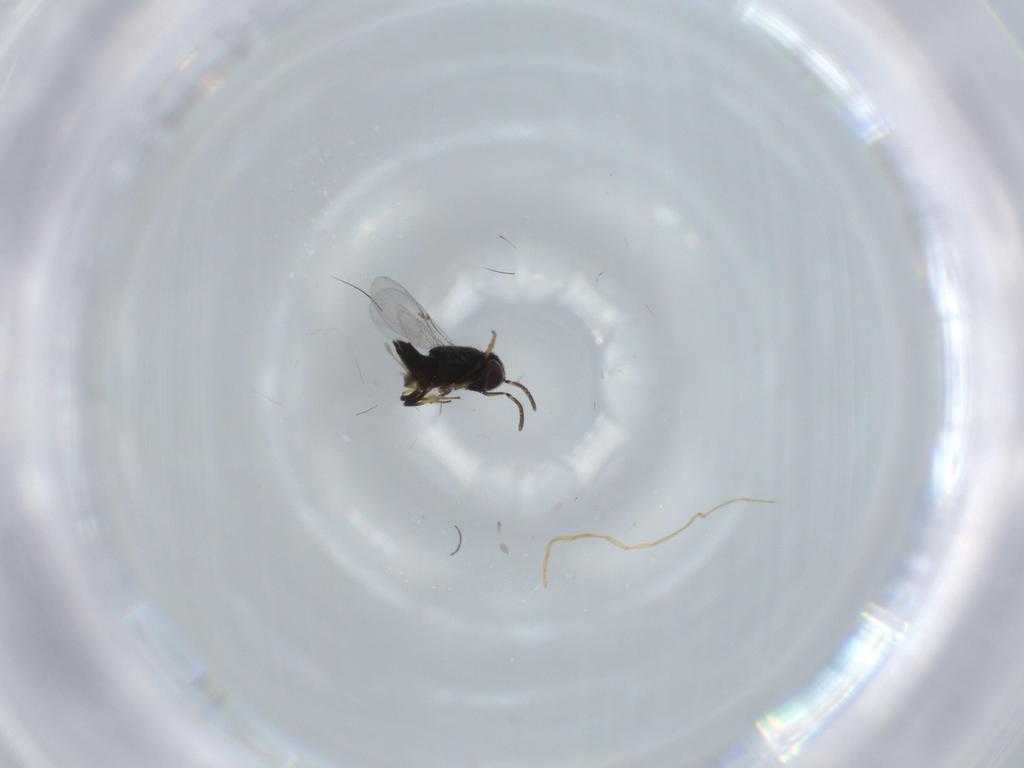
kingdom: Animalia
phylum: Arthropoda
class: Insecta
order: Hymenoptera
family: Encyrtidae
